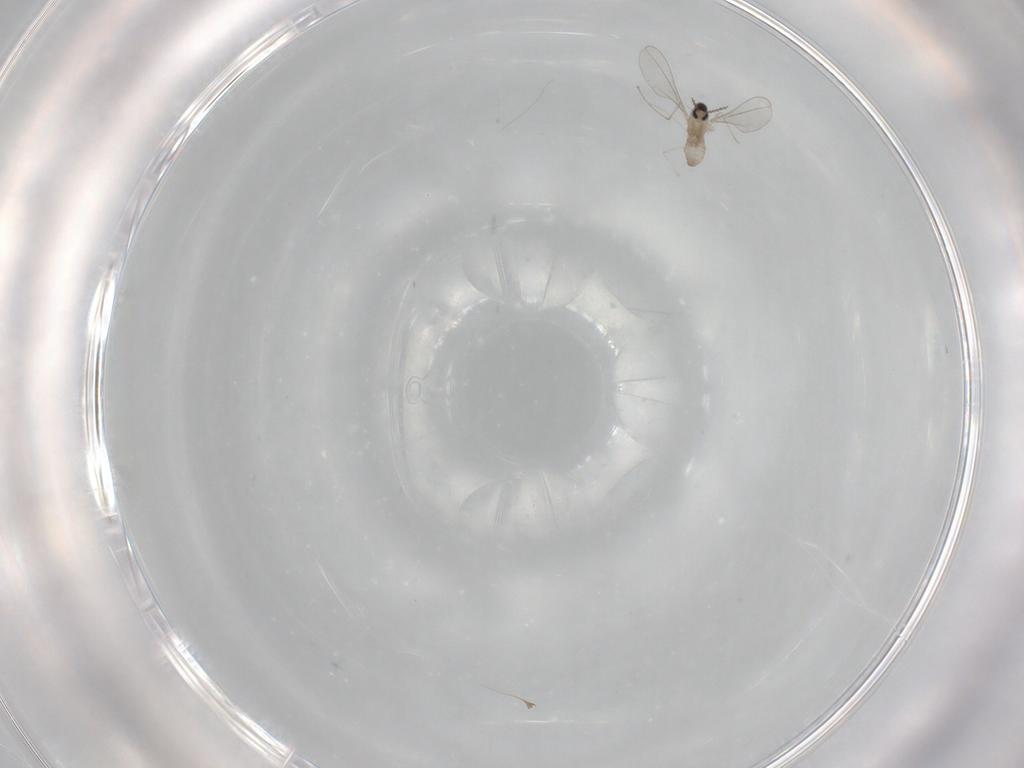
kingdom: Animalia
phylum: Arthropoda
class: Insecta
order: Diptera
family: Cecidomyiidae
